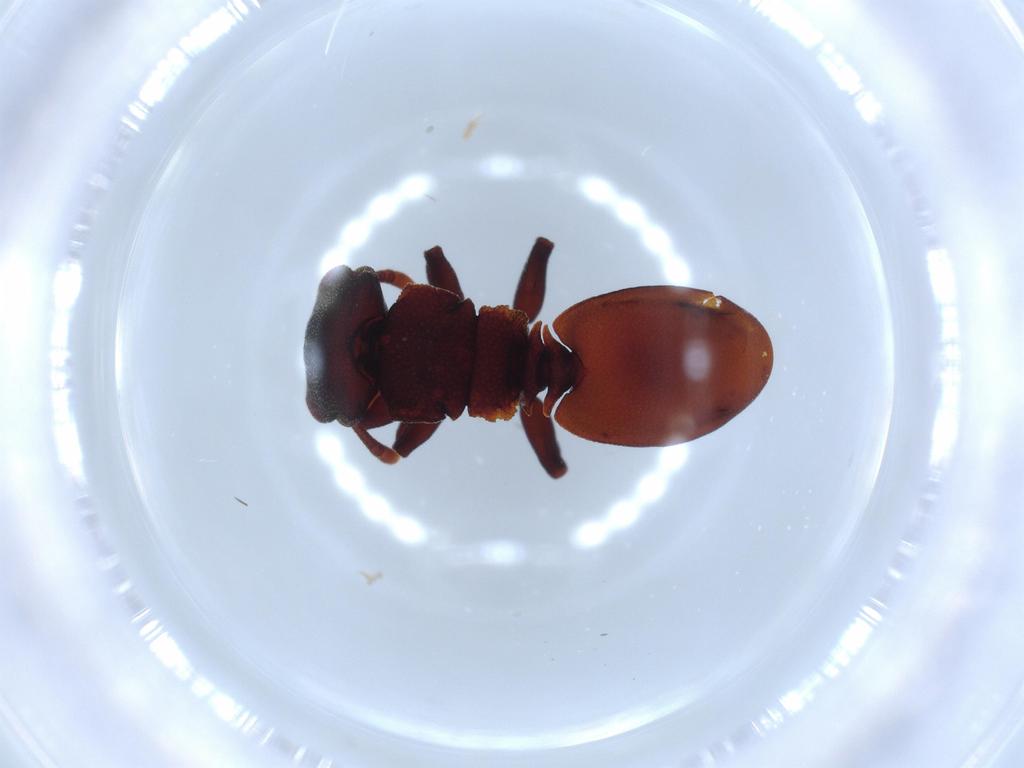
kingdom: Animalia
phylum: Arthropoda
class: Insecta
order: Hymenoptera
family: Formicidae
